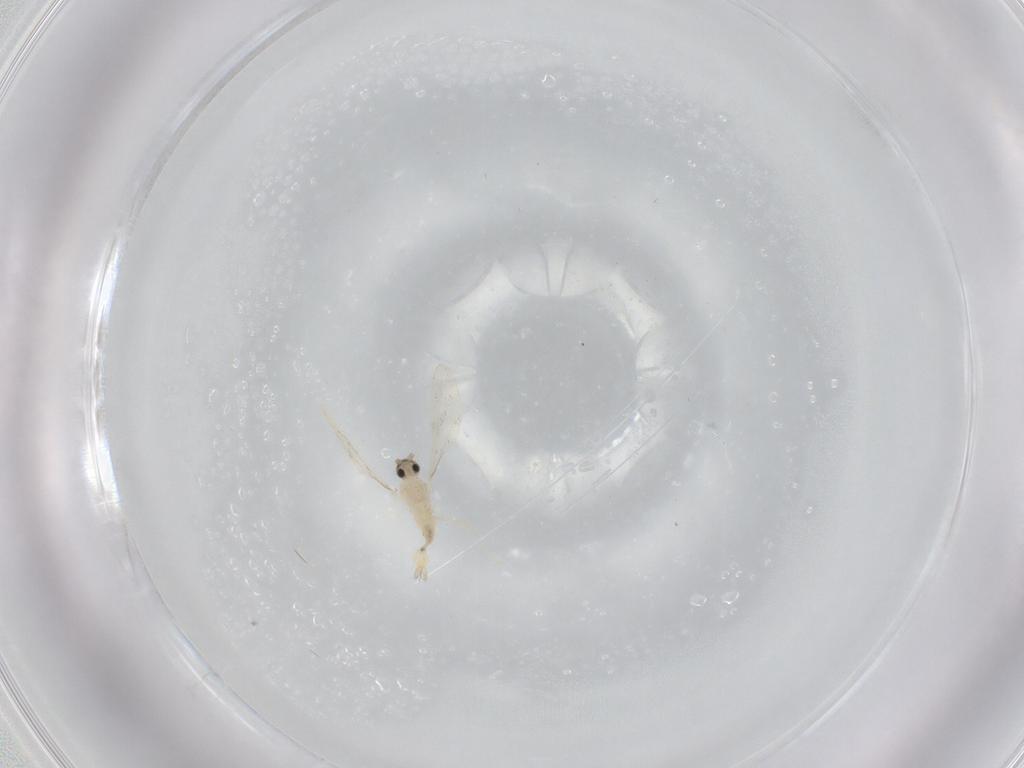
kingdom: Animalia
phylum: Arthropoda
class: Insecta
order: Diptera
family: Cecidomyiidae
